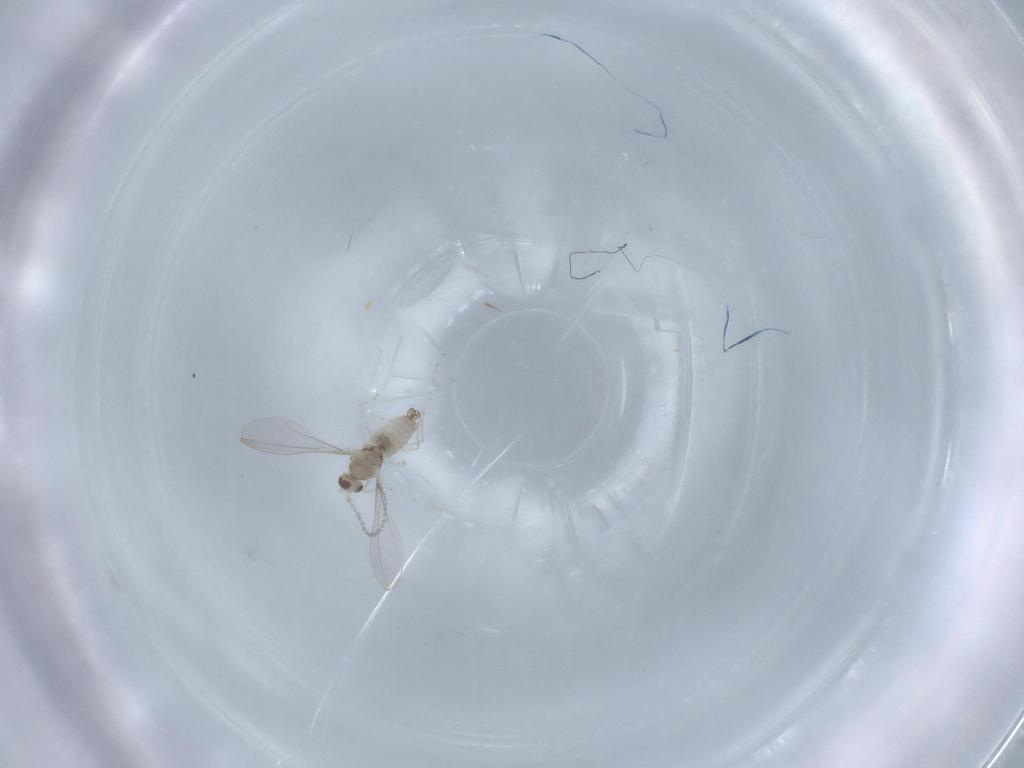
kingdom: Animalia
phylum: Arthropoda
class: Insecta
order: Diptera
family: Cecidomyiidae
